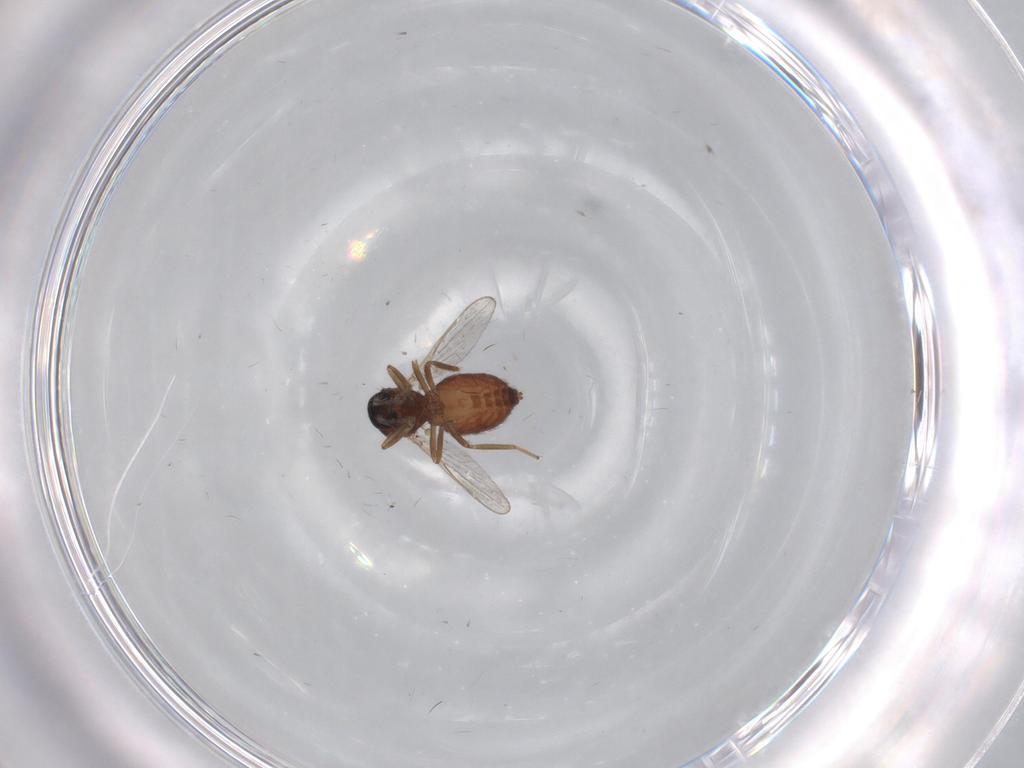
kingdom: Animalia
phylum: Arthropoda
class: Insecta
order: Diptera
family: Ceratopogonidae
